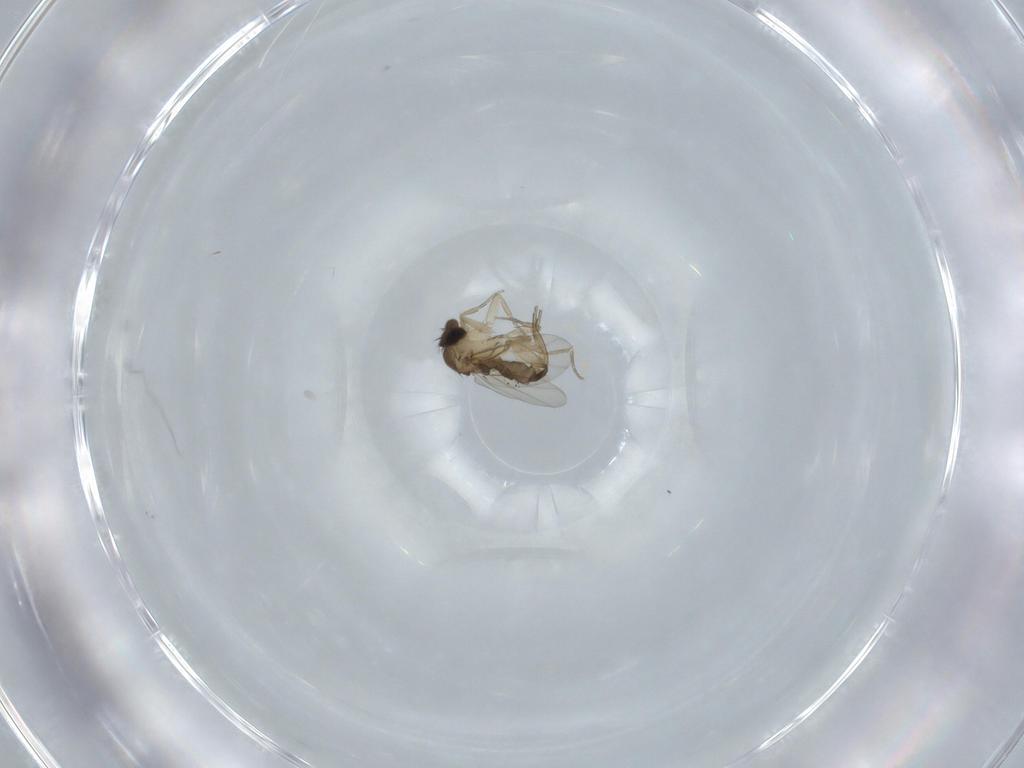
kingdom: Animalia
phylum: Arthropoda
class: Insecta
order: Diptera
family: Phoridae
